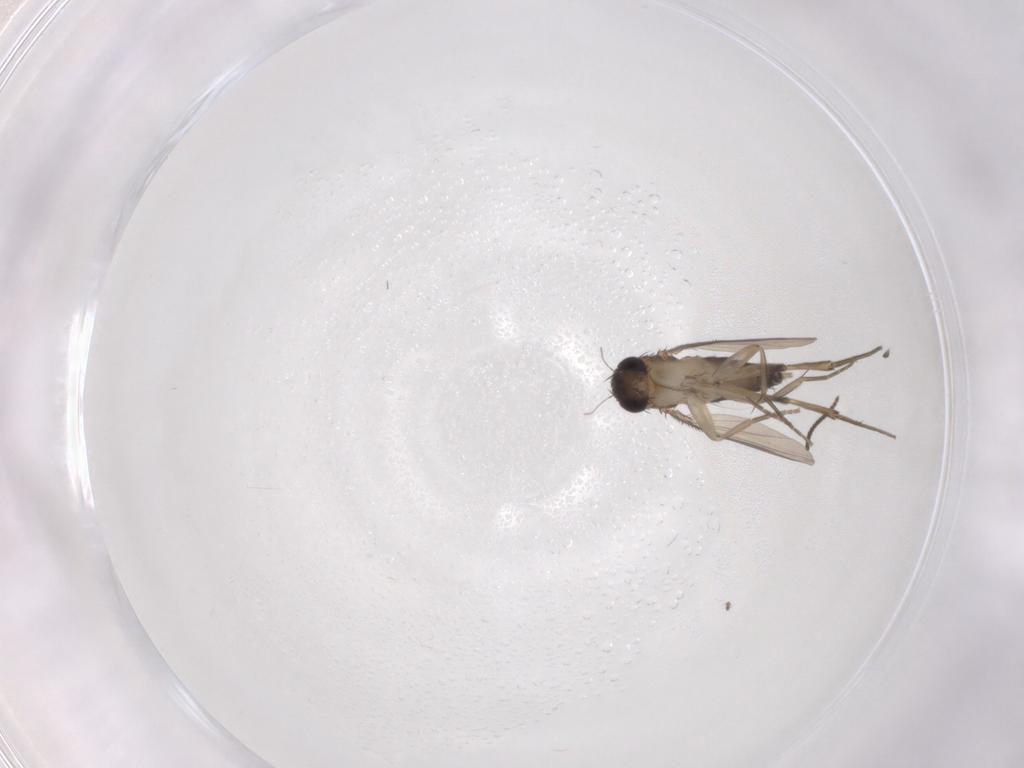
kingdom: Animalia
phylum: Arthropoda
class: Insecta
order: Diptera
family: Phoridae
